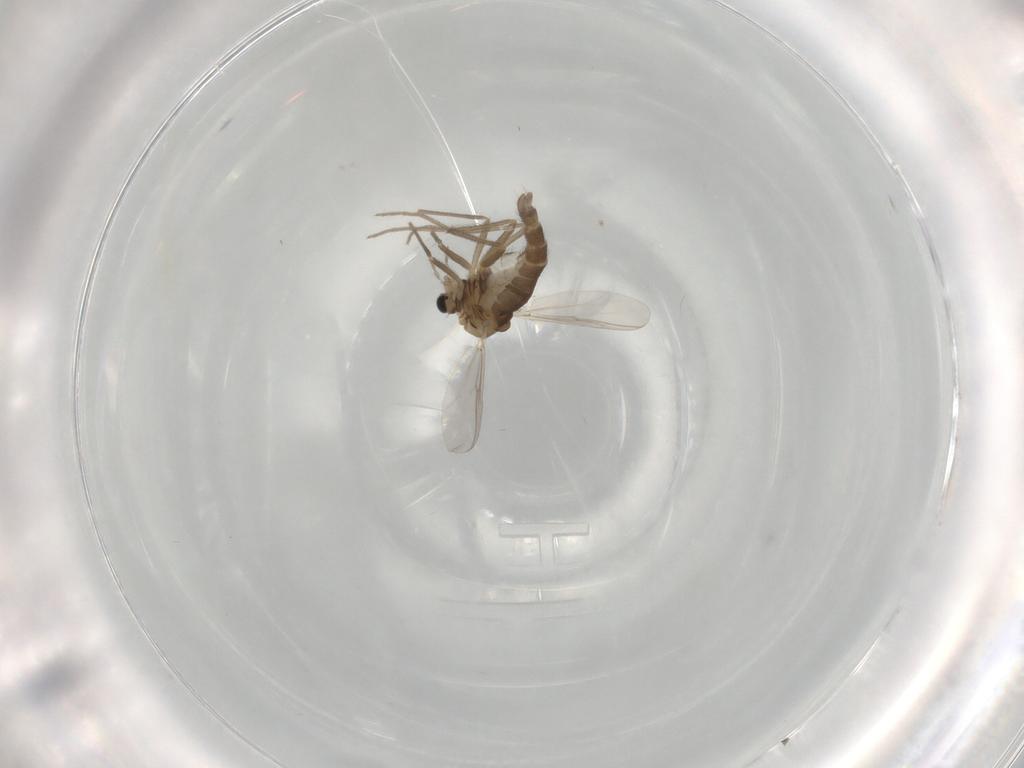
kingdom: Animalia
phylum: Arthropoda
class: Insecta
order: Diptera
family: Chironomidae
